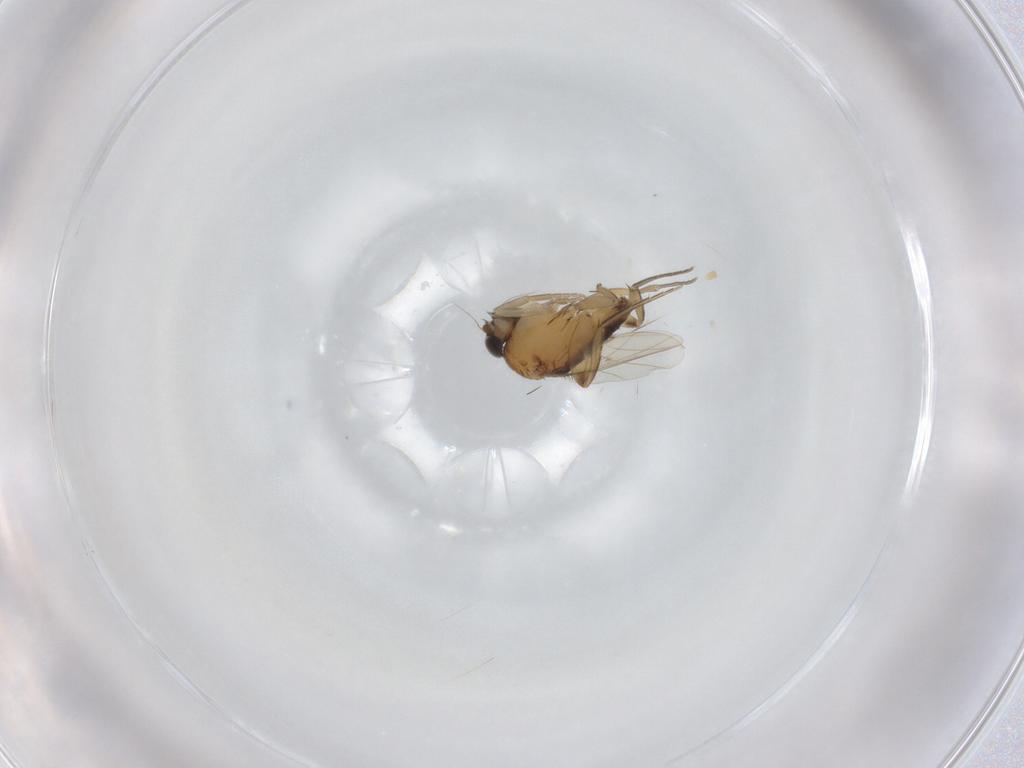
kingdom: Animalia
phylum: Arthropoda
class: Insecta
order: Diptera
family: Phoridae
